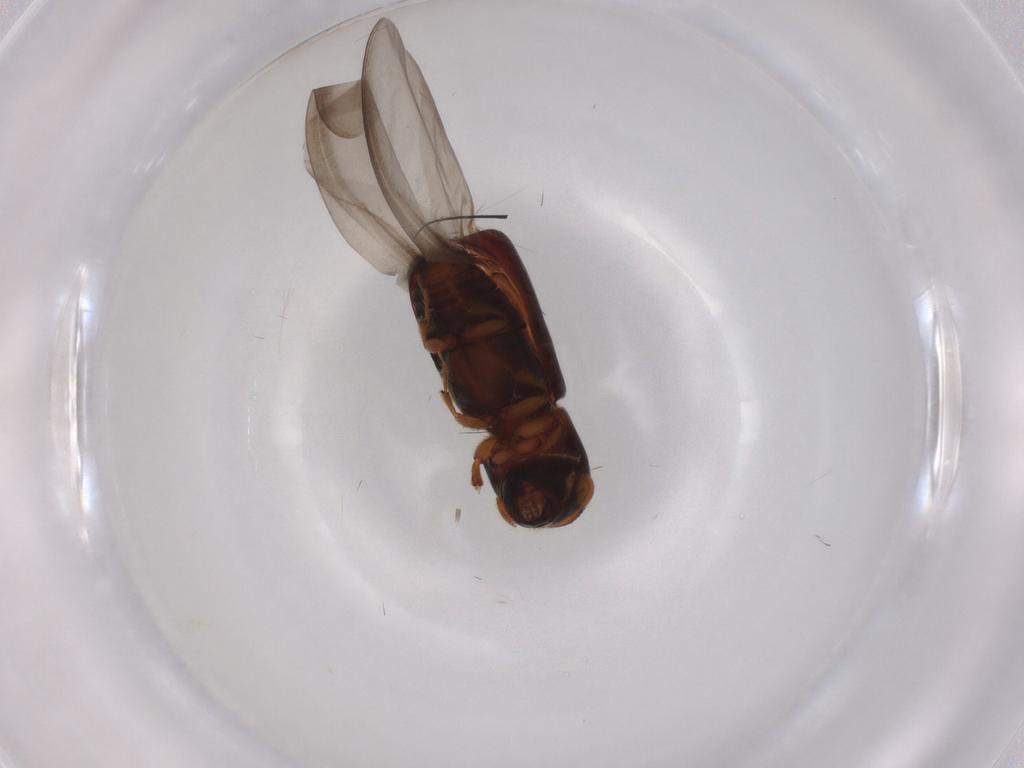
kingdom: Animalia
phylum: Arthropoda
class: Insecta
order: Coleoptera
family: Curculionidae
